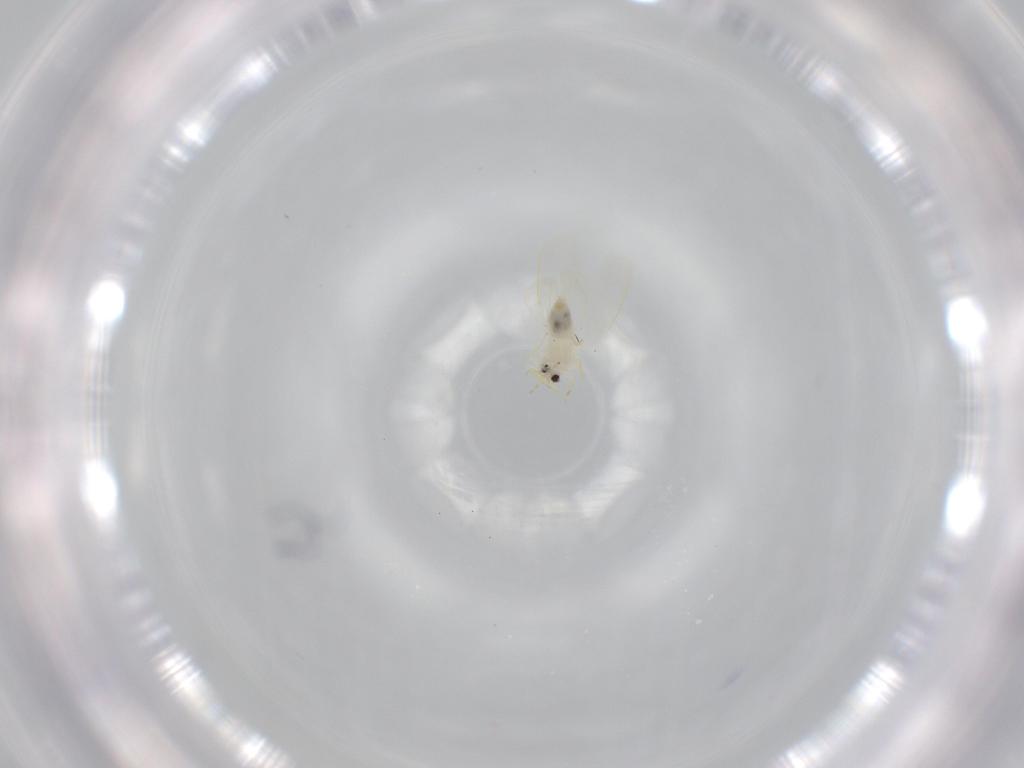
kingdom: Animalia
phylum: Arthropoda
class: Insecta
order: Hemiptera
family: Aleyrodidae
